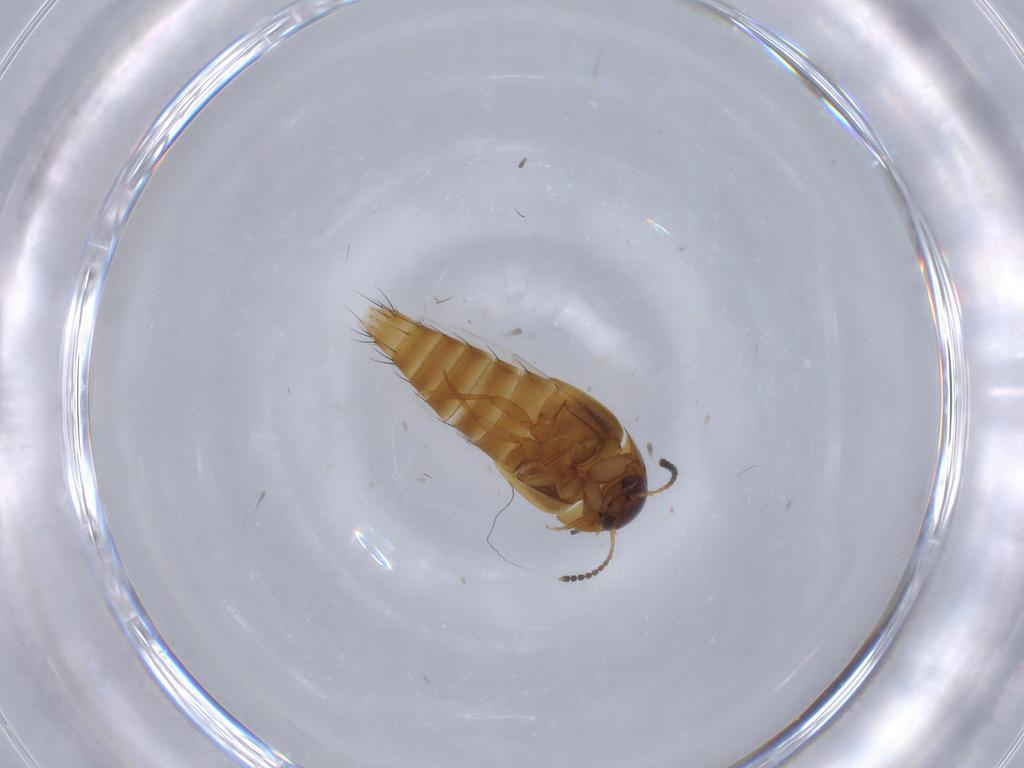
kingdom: Animalia
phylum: Arthropoda
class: Insecta
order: Coleoptera
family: Staphylinidae
